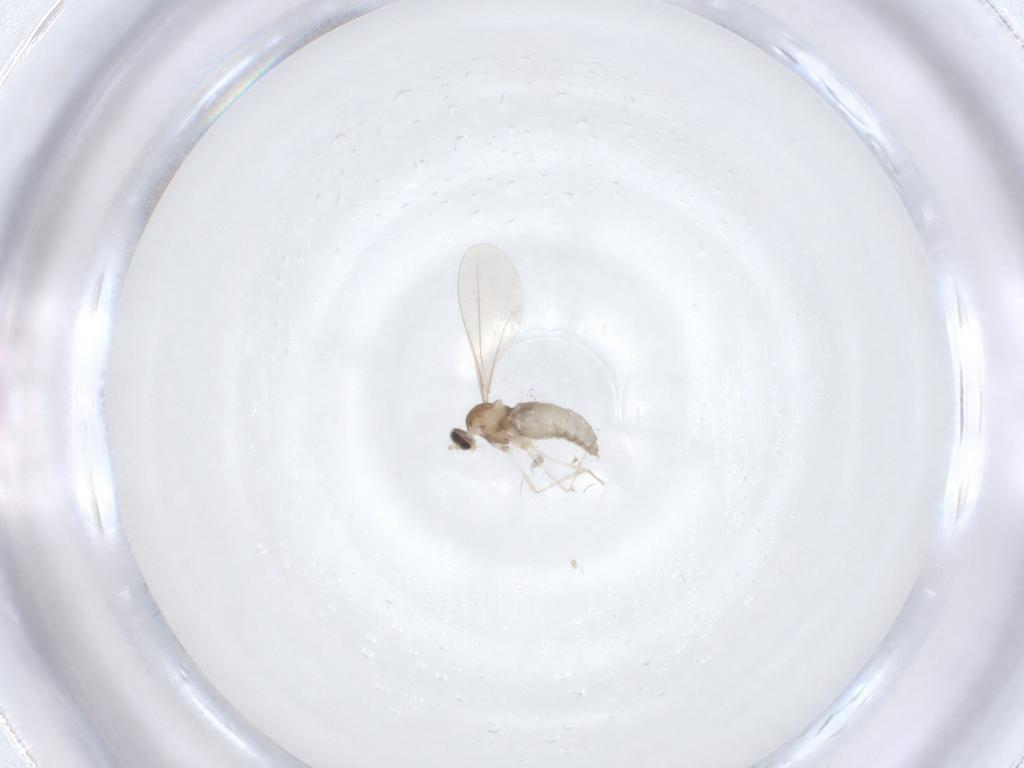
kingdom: Animalia
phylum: Arthropoda
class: Insecta
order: Diptera
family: Cecidomyiidae
